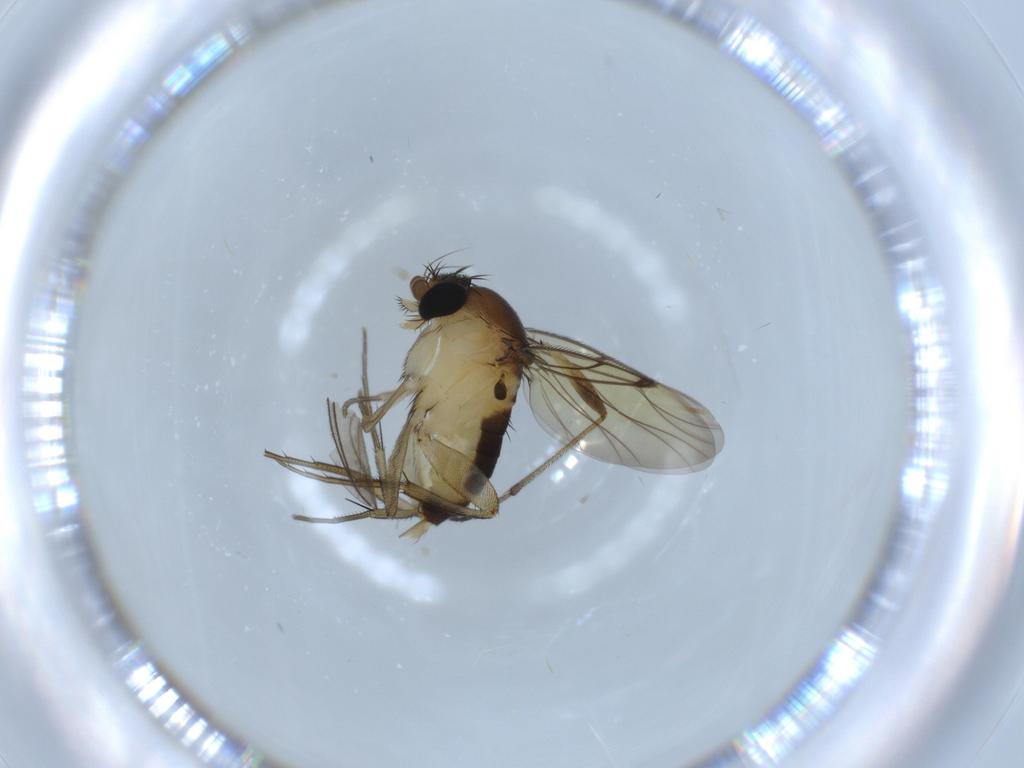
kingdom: Animalia
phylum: Arthropoda
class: Insecta
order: Diptera
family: Sciaridae
